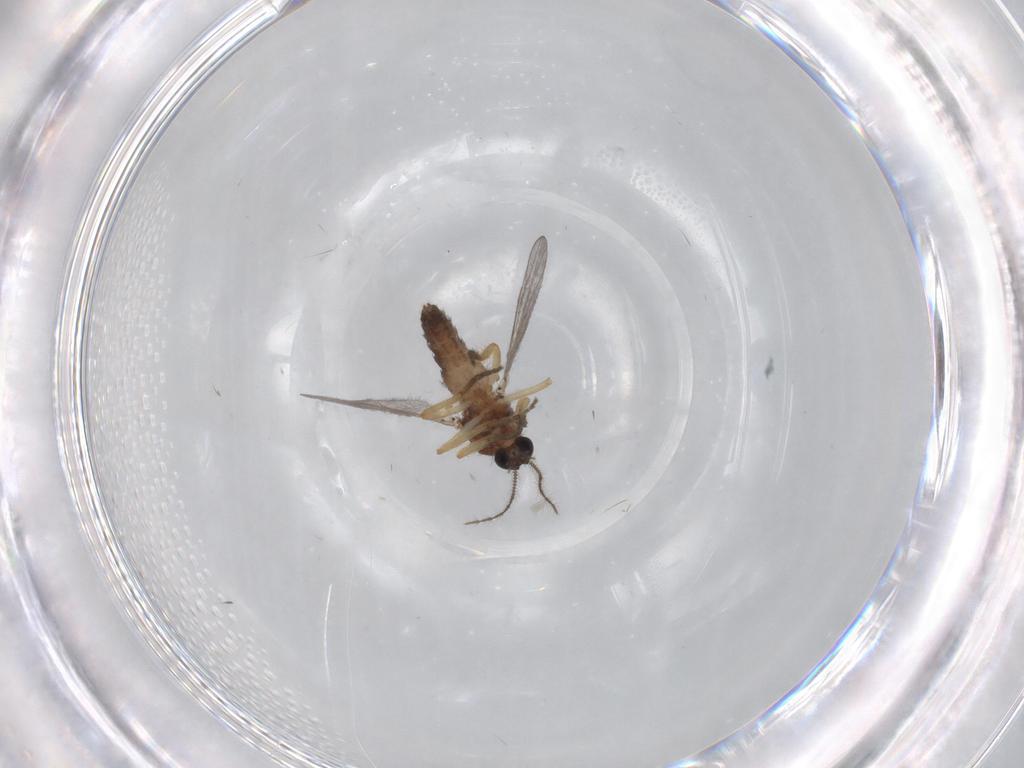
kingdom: Animalia
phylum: Arthropoda
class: Insecta
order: Diptera
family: Ceratopogonidae
